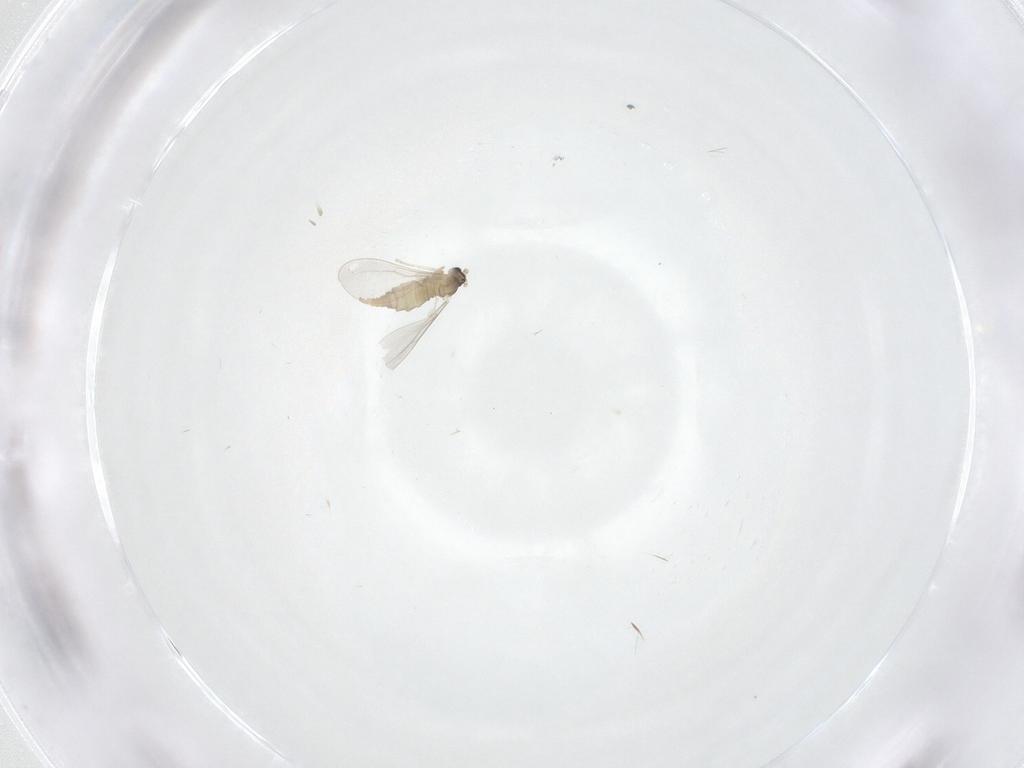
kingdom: Animalia
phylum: Arthropoda
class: Insecta
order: Diptera
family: Cecidomyiidae
